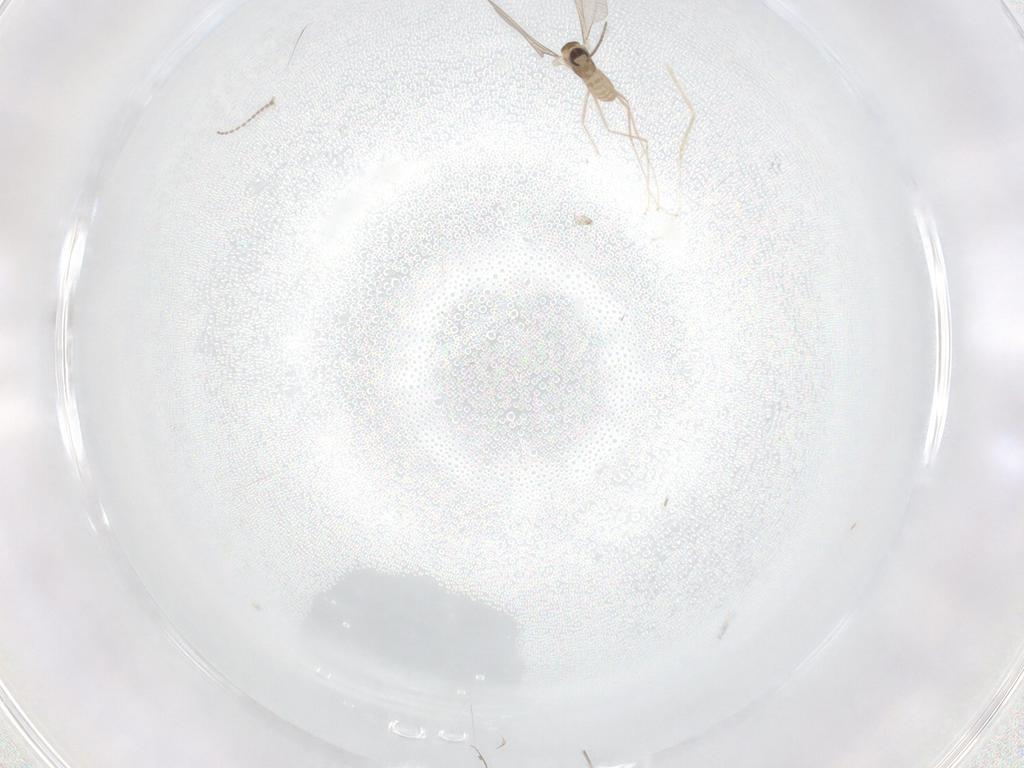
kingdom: Animalia
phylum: Arthropoda
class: Insecta
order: Diptera
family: Cecidomyiidae
